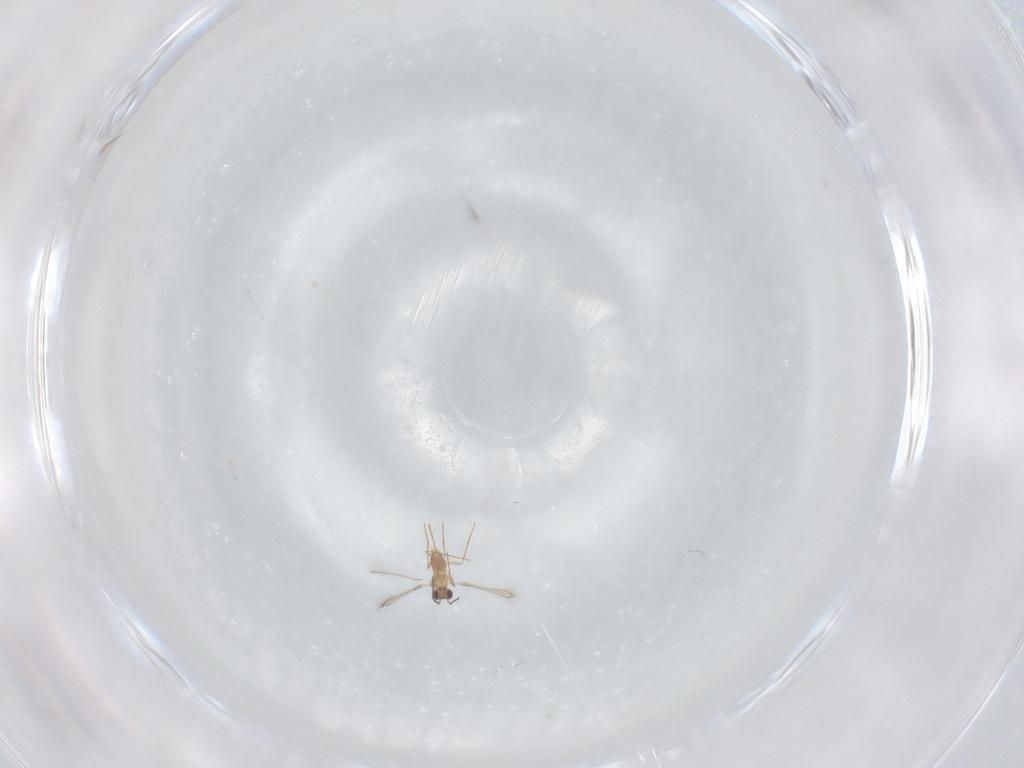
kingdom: Animalia
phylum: Arthropoda
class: Insecta
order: Hymenoptera
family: Mymaridae
